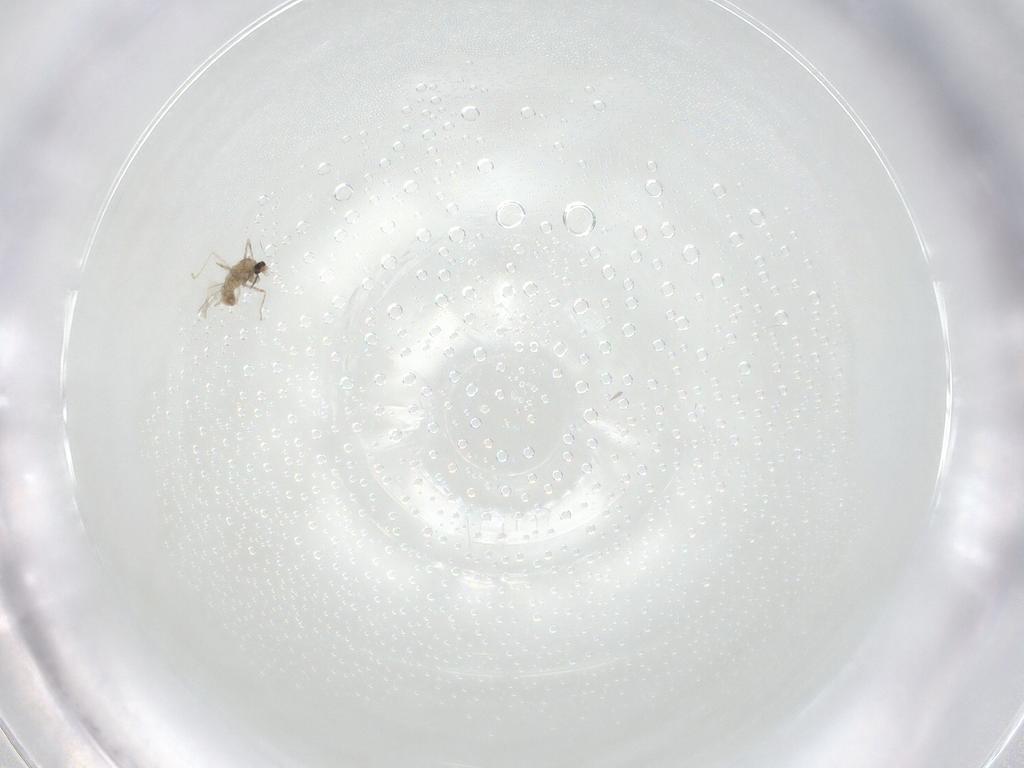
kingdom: Animalia
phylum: Arthropoda
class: Insecta
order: Diptera
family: Cecidomyiidae
